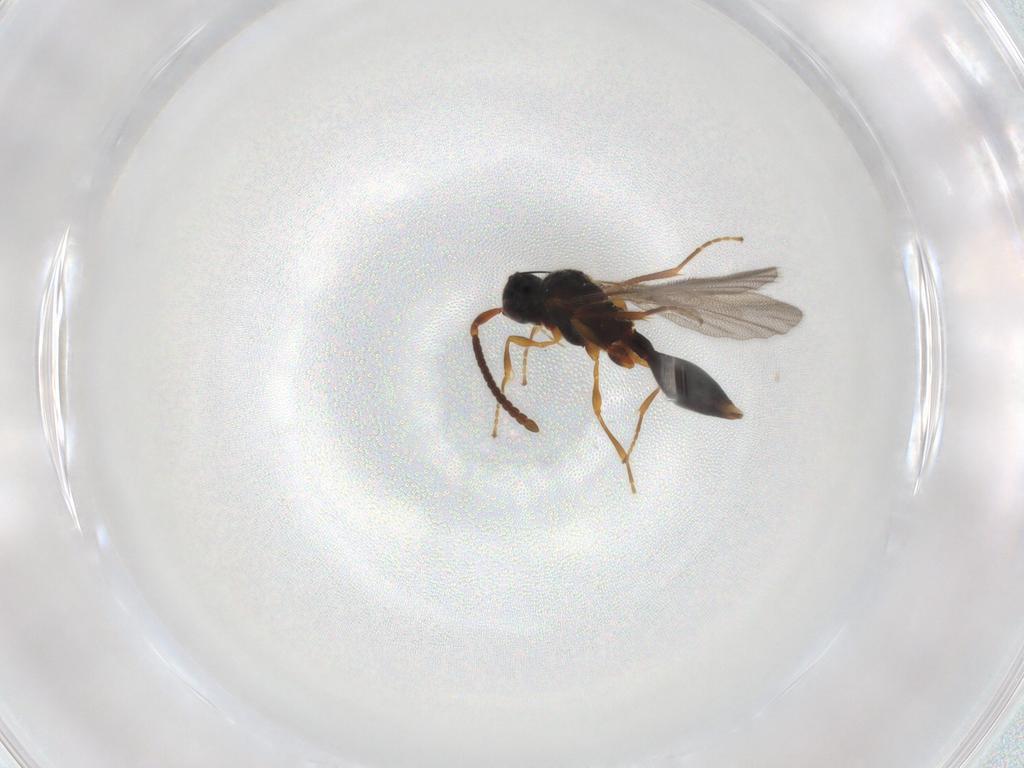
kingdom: Animalia
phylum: Arthropoda
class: Insecta
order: Hymenoptera
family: Diapriidae
